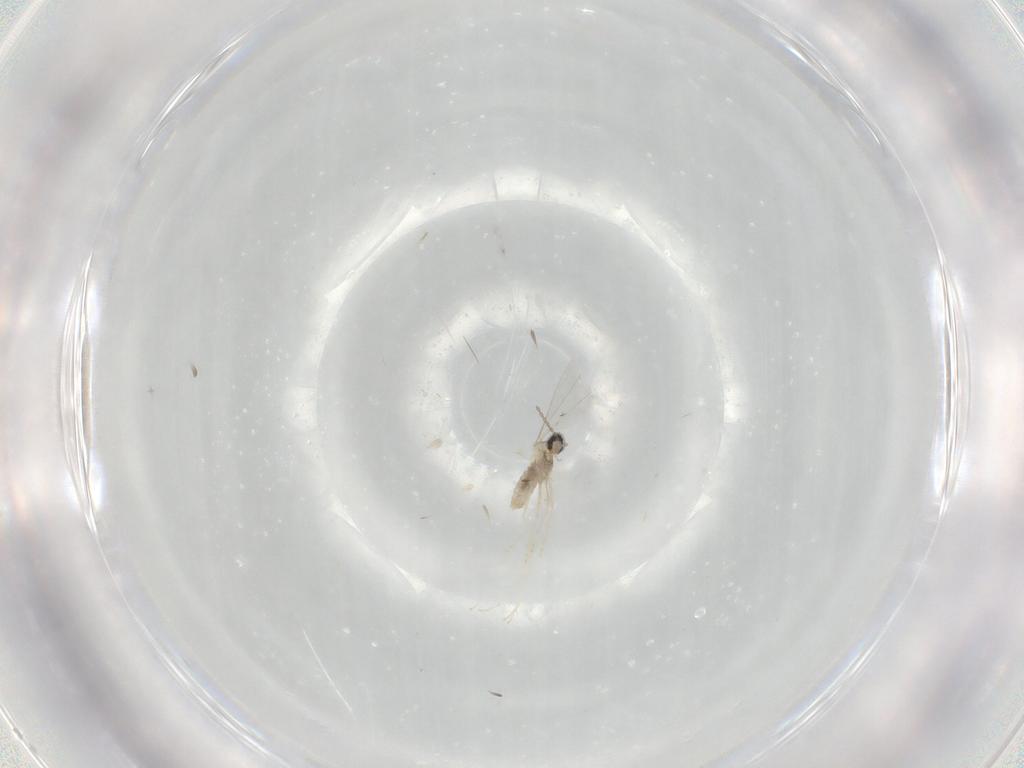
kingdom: Animalia
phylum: Arthropoda
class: Insecta
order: Diptera
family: Cecidomyiidae
